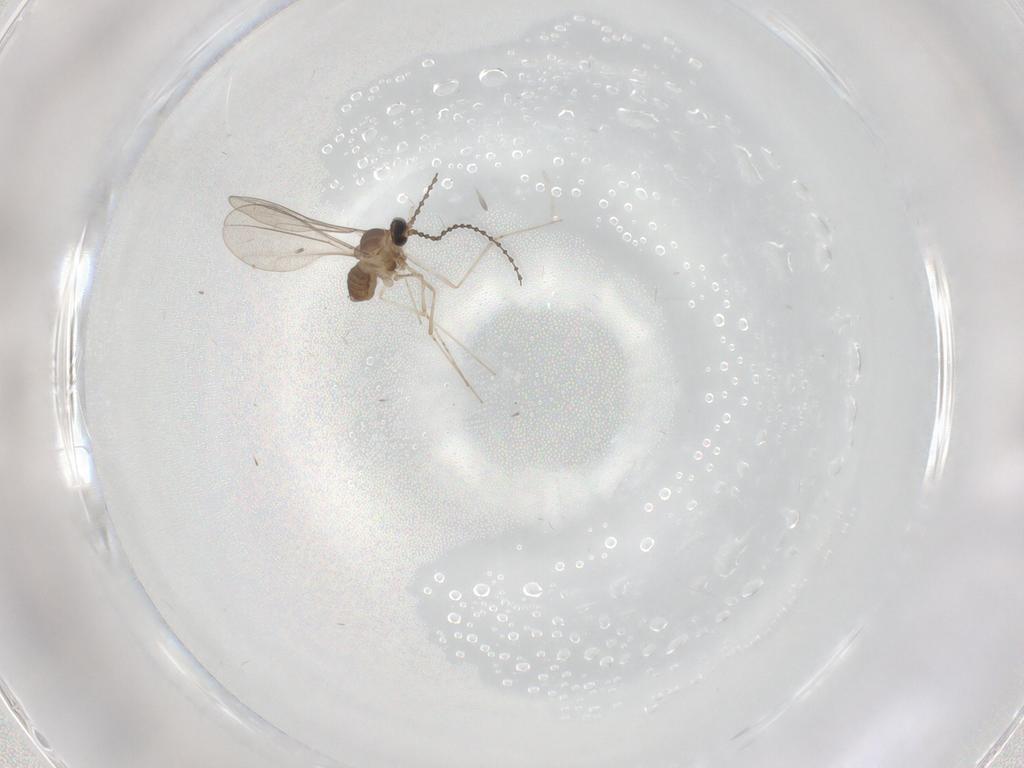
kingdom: Animalia
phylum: Arthropoda
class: Insecta
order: Diptera
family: Cecidomyiidae
